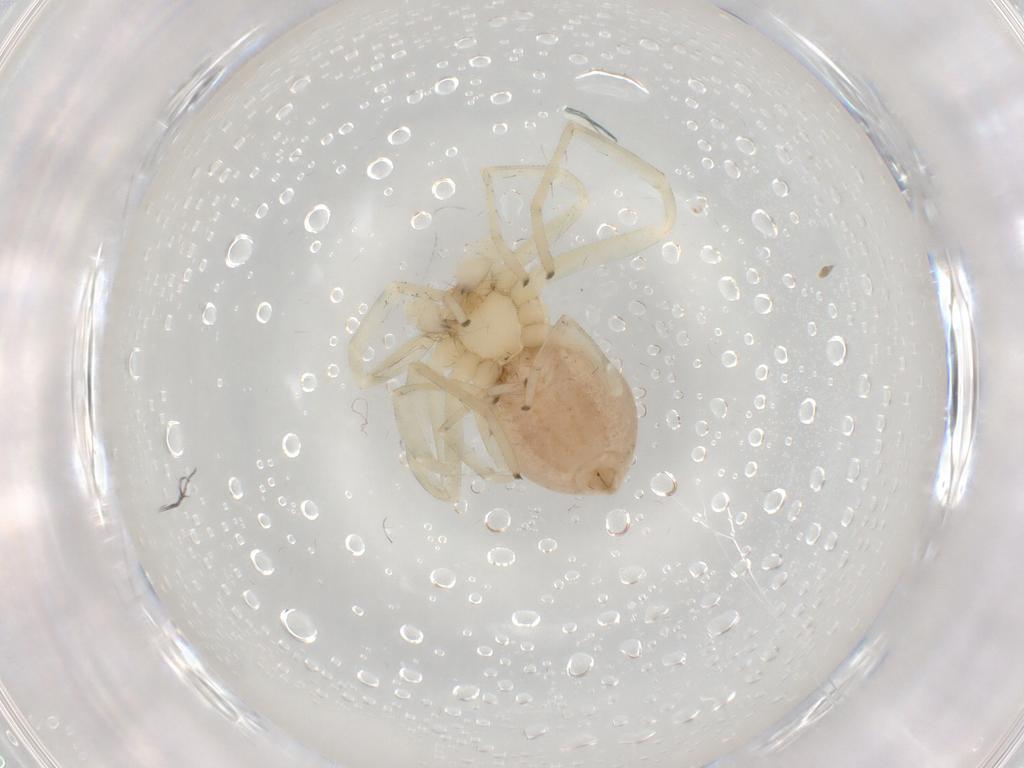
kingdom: Animalia
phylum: Arthropoda
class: Arachnida
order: Araneae
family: Philodromidae
